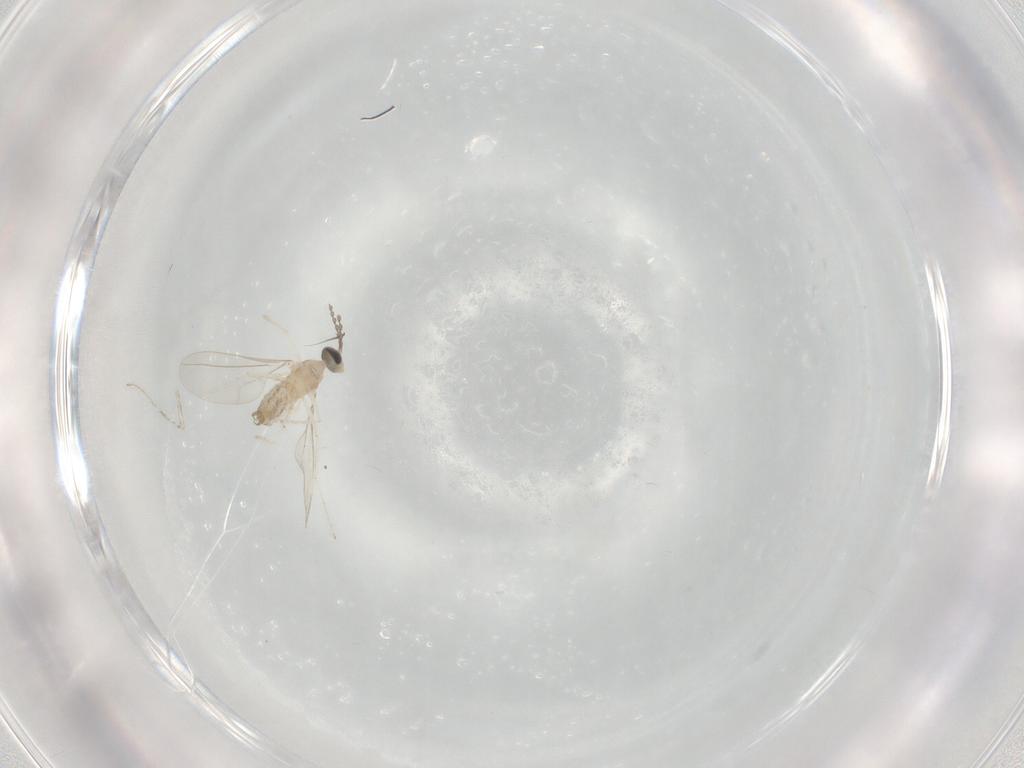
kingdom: Animalia
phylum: Arthropoda
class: Insecta
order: Diptera
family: Cecidomyiidae
